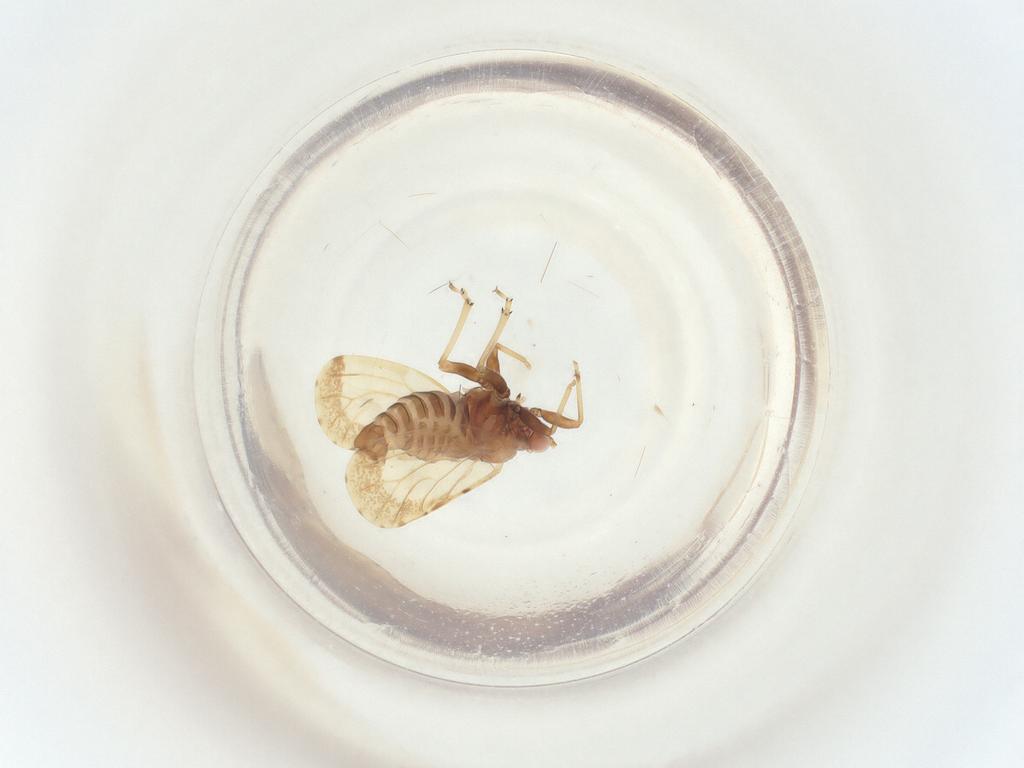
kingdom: Animalia
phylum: Arthropoda
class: Insecta
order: Hemiptera
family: Psyllidae
